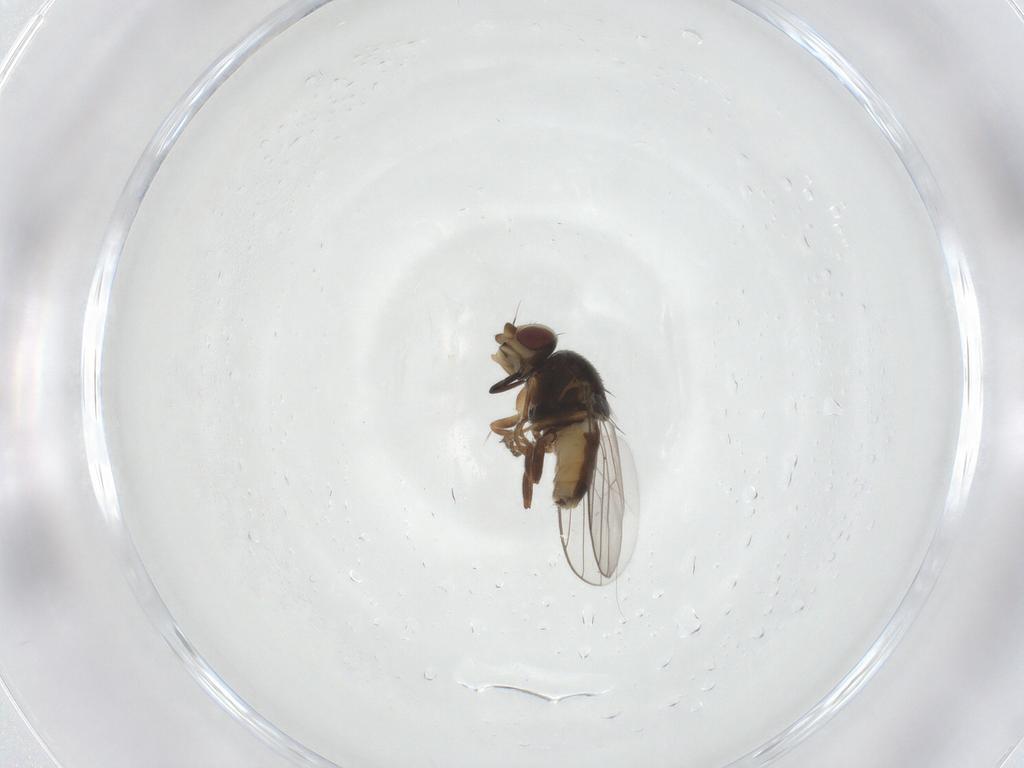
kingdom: Animalia
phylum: Arthropoda
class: Insecta
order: Diptera
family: Chloropidae
